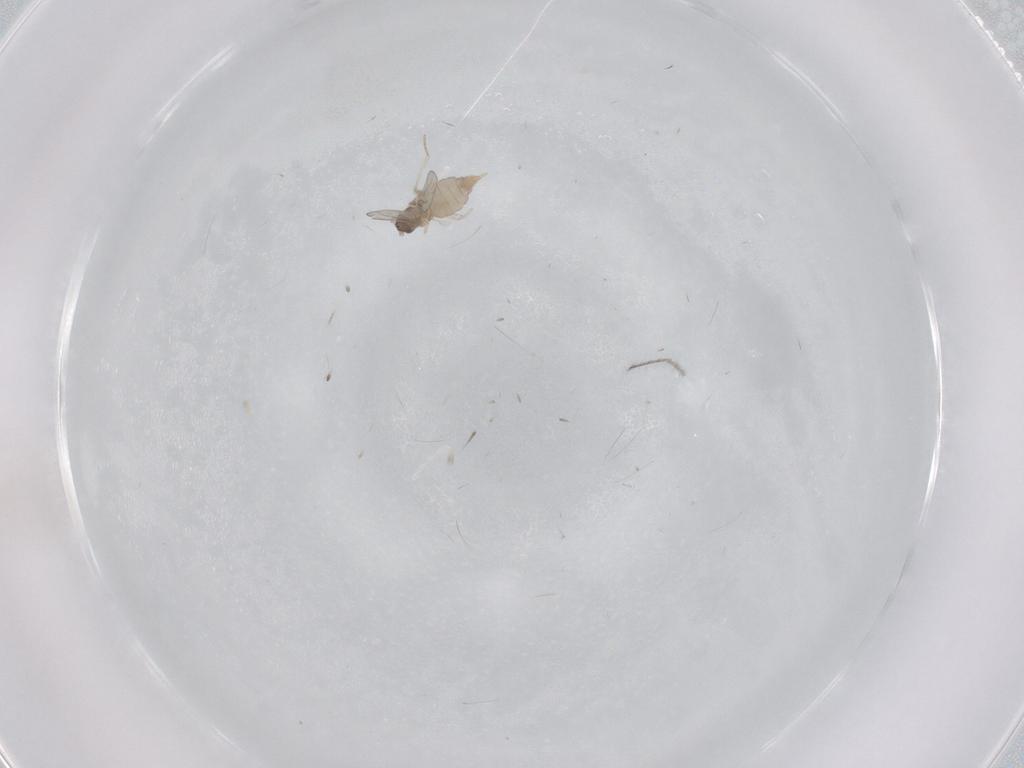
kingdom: Animalia
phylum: Arthropoda
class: Insecta
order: Diptera
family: Cecidomyiidae
